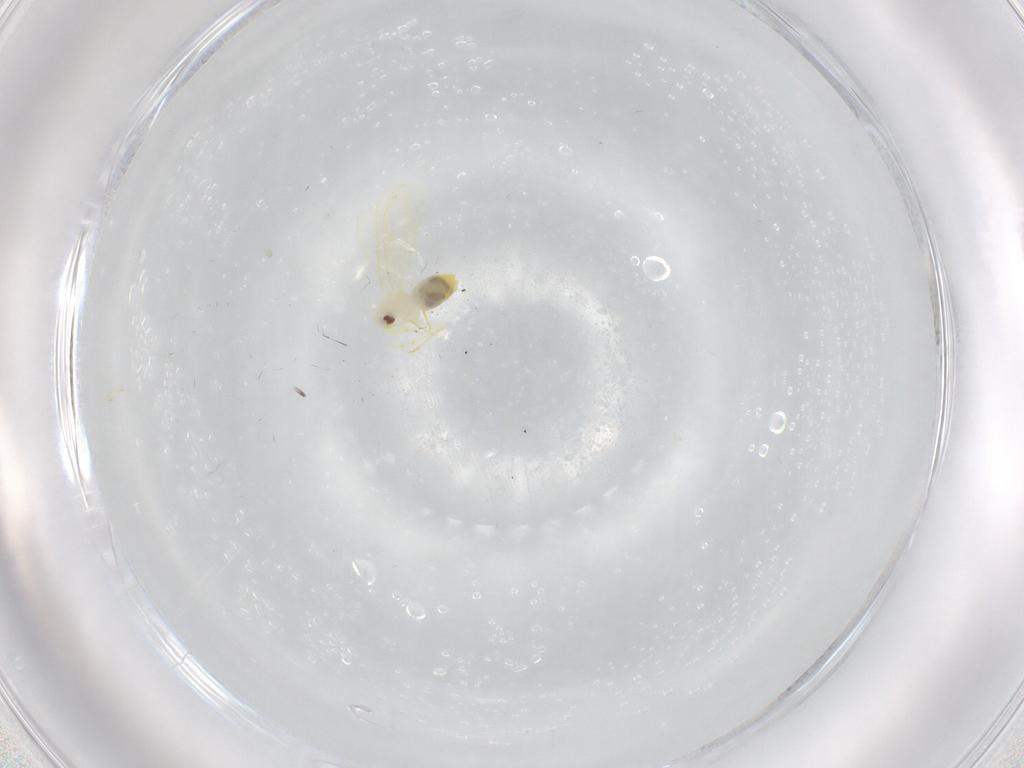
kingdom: Animalia
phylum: Arthropoda
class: Insecta
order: Hemiptera
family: Aleyrodidae
